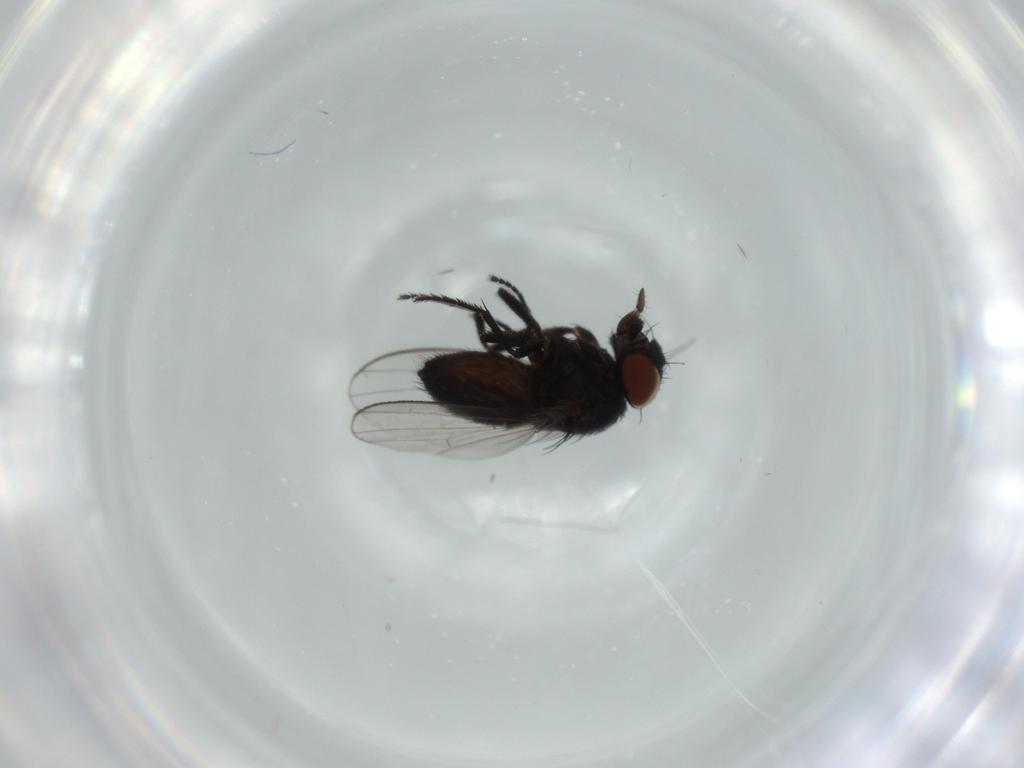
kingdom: Animalia
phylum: Arthropoda
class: Insecta
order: Diptera
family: Milichiidae
